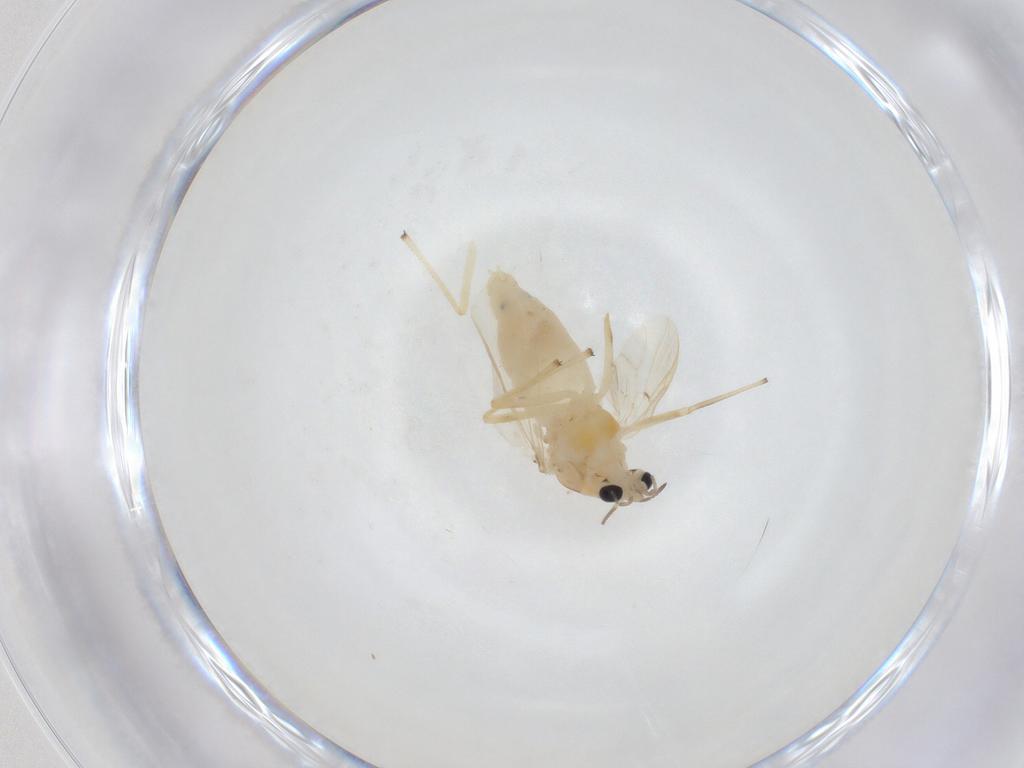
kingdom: Animalia
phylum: Arthropoda
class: Insecta
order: Diptera
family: Chironomidae
